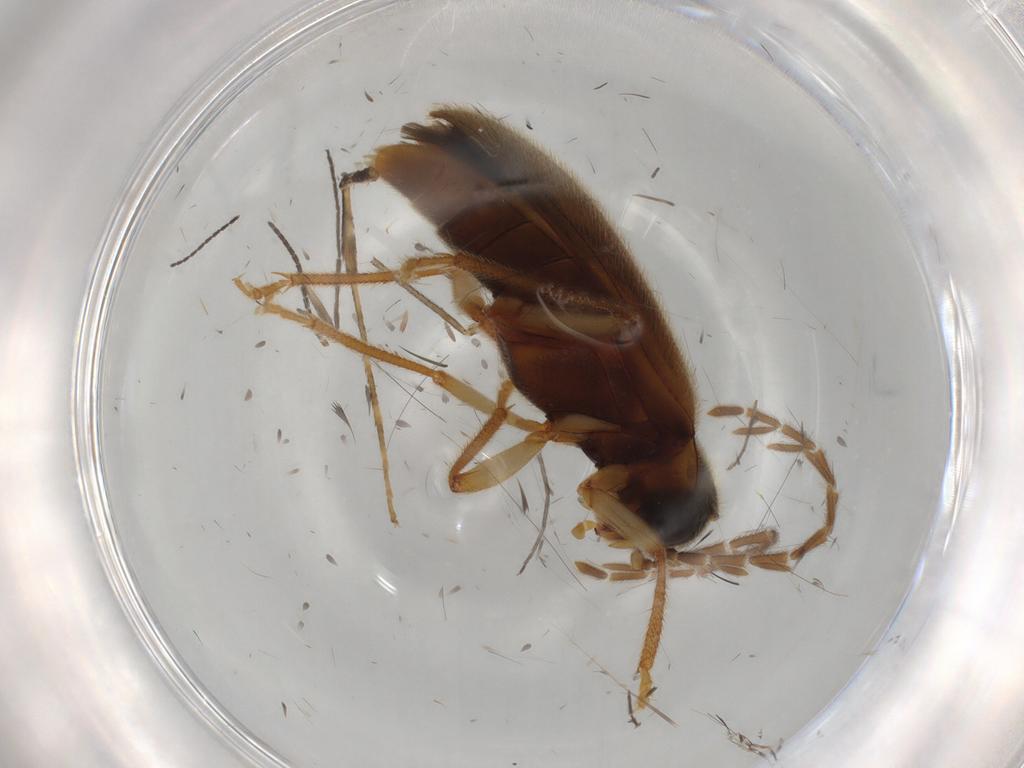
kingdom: Animalia
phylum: Arthropoda
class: Insecta
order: Coleoptera
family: Ptilodactylidae
